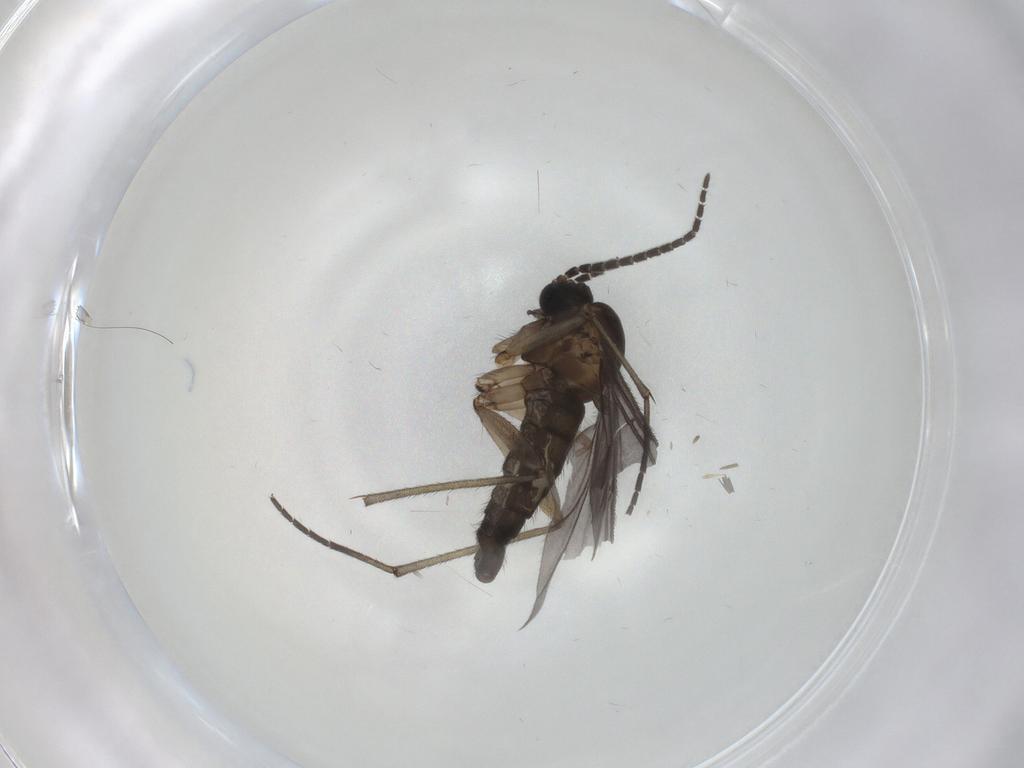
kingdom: Animalia
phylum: Arthropoda
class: Insecta
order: Diptera
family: Sciaridae
